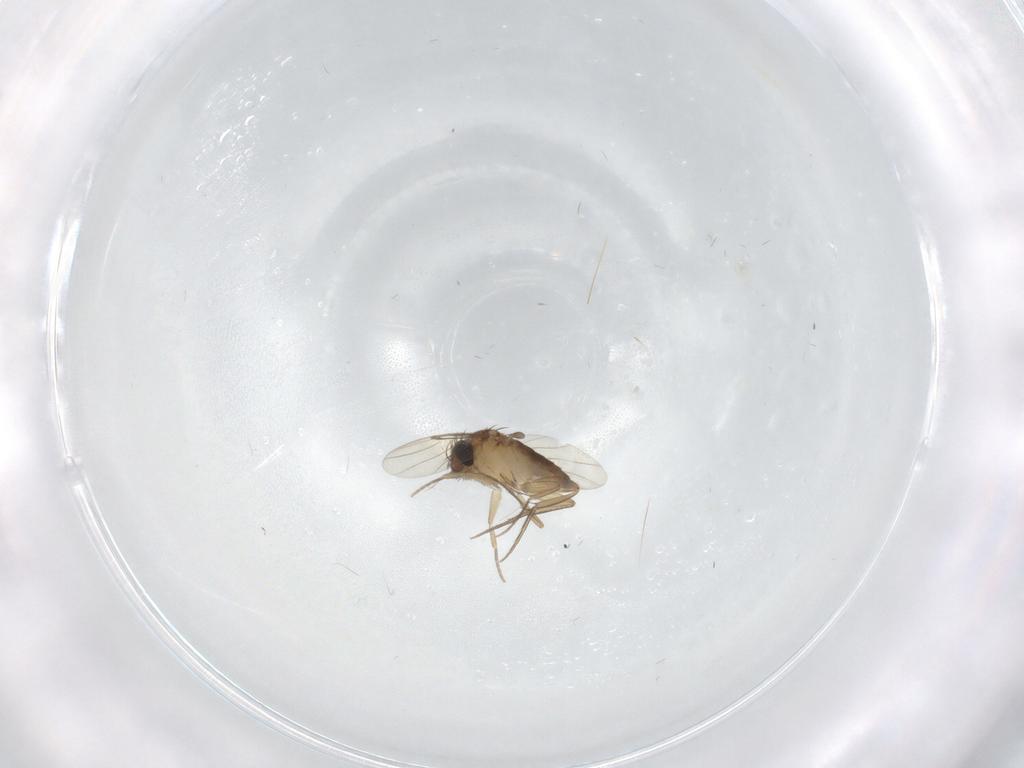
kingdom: Animalia
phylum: Arthropoda
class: Insecta
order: Diptera
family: Phoridae
